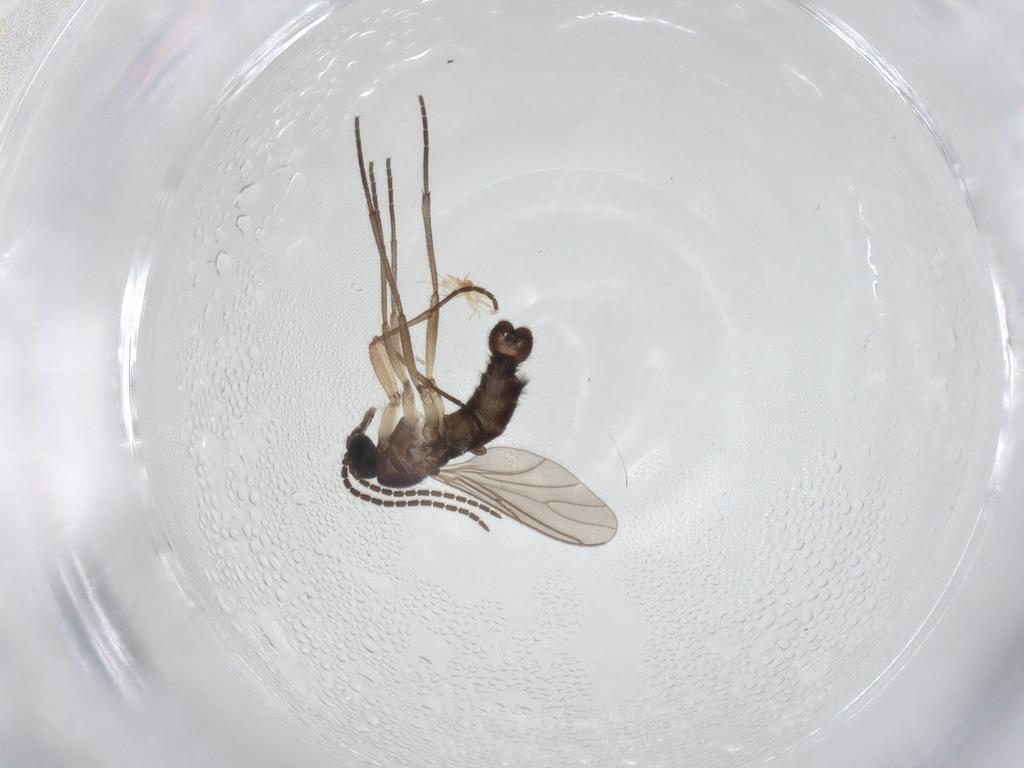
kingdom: Animalia
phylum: Arthropoda
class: Insecta
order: Diptera
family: Sciaridae
